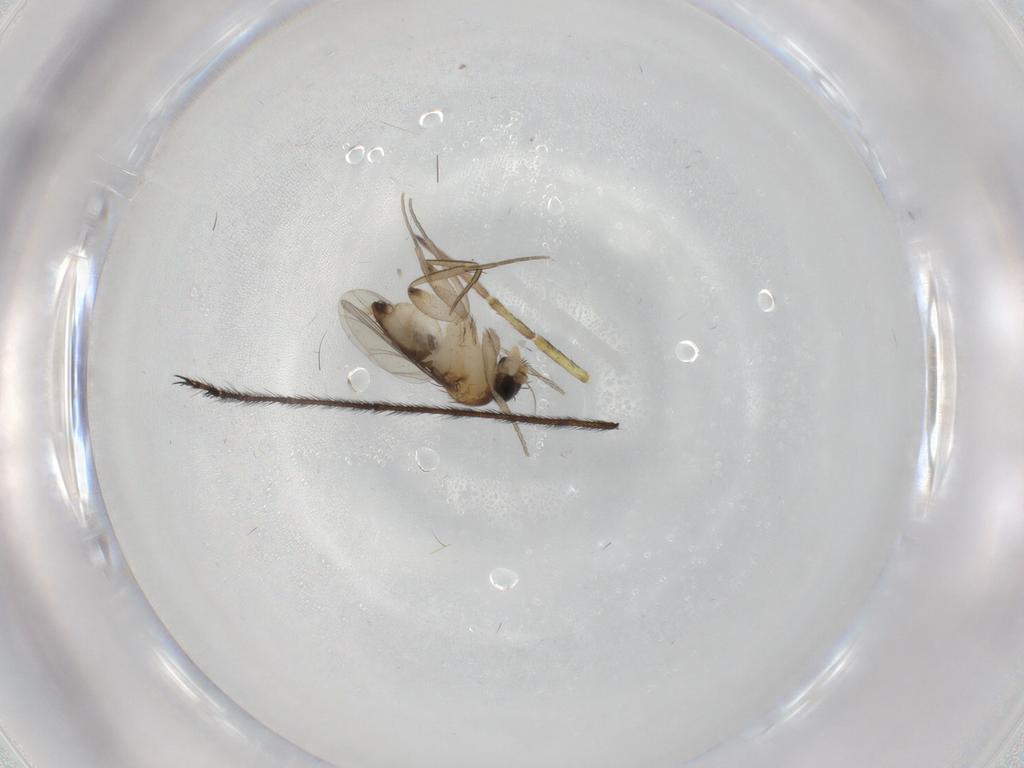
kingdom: Animalia
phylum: Arthropoda
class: Insecta
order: Diptera
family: Phoridae
